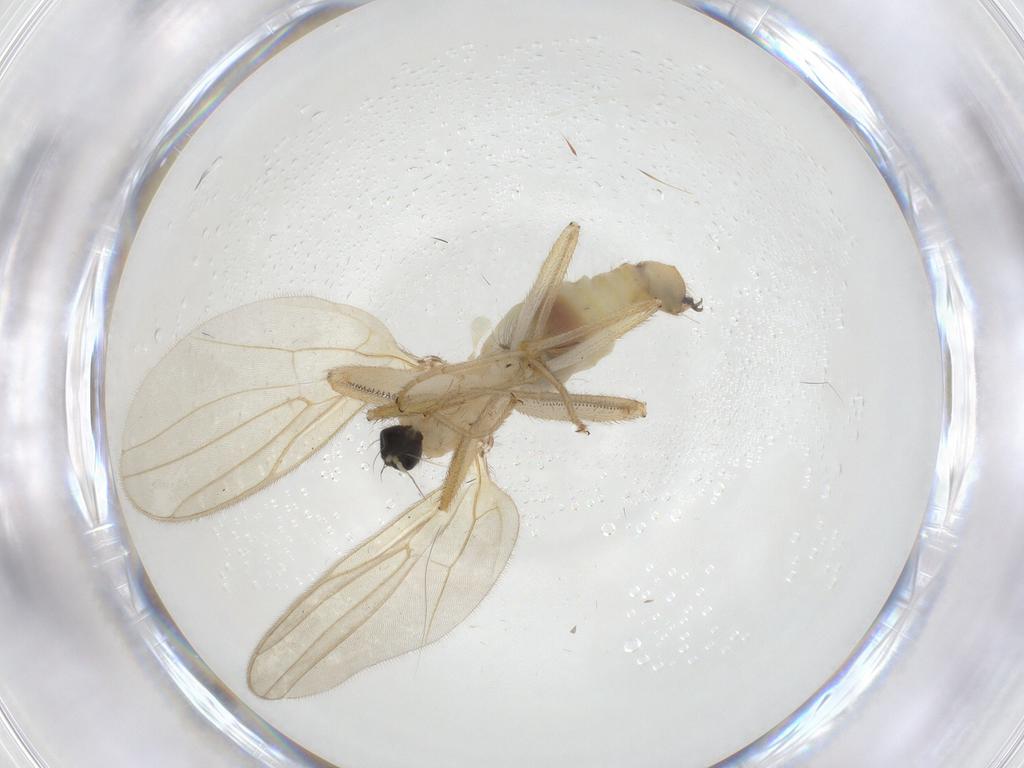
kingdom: Animalia
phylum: Arthropoda
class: Insecta
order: Diptera
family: Hybotidae
